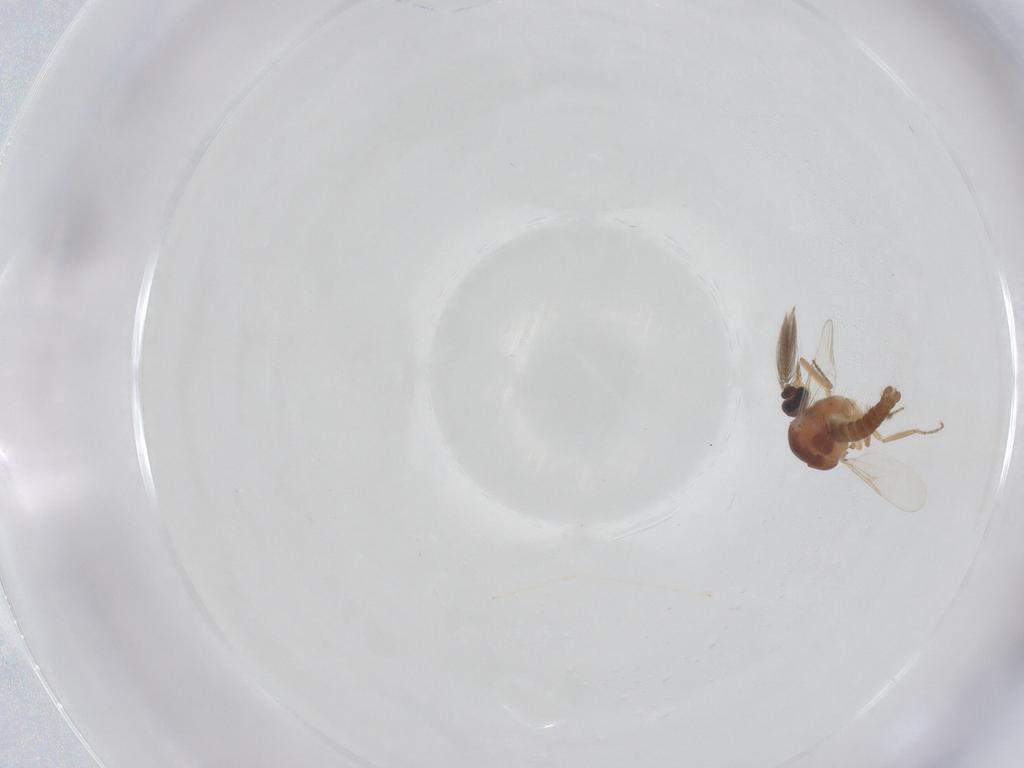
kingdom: Animalia
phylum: Arthropoda
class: Insecta
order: Diptera
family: Ceratopogonidae
